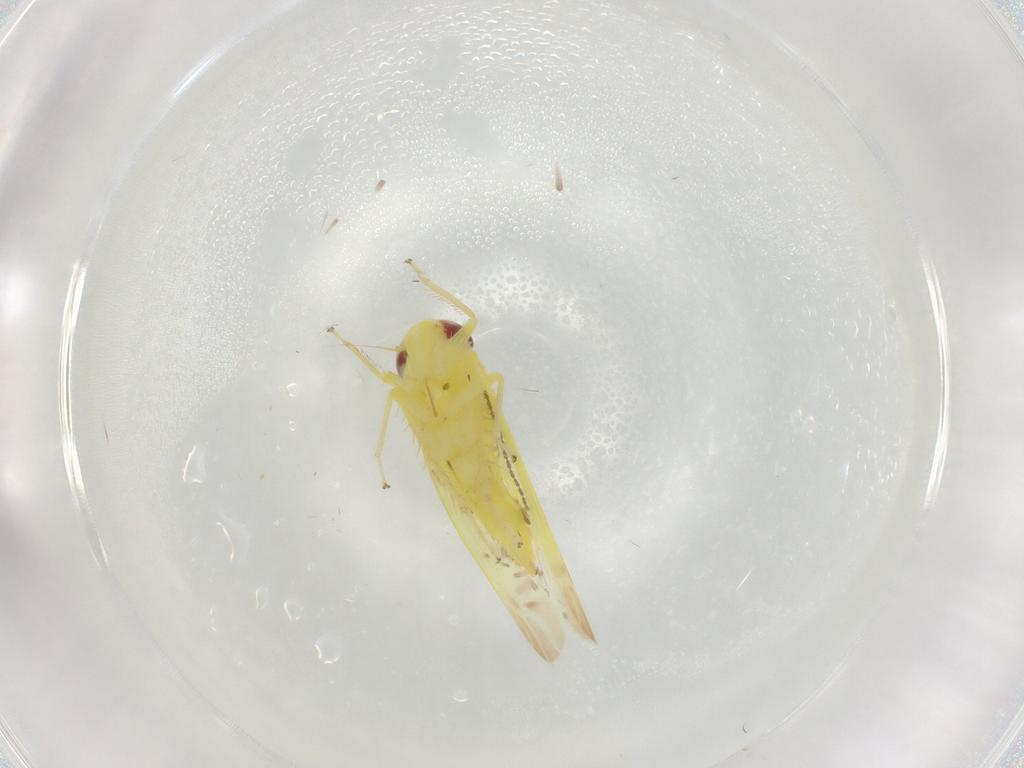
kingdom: Animalia
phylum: Arthropoda
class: Insecta
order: Hemiptera
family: Cicadellidae
